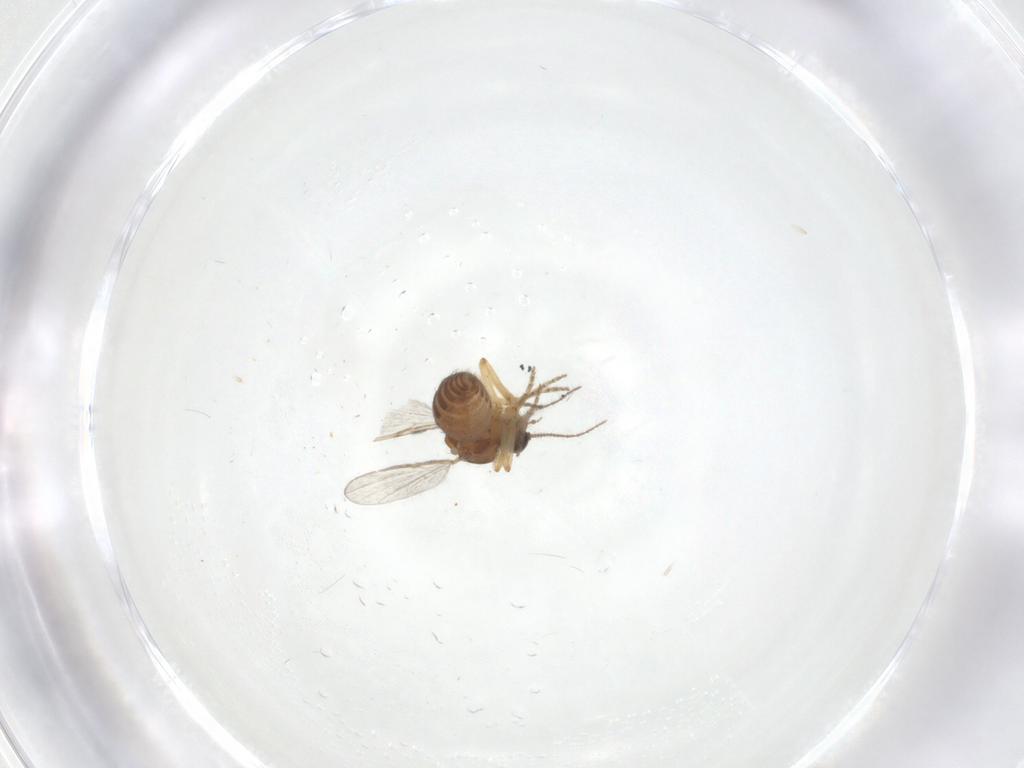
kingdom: Animalia
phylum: Arthropoda
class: Insecta
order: Diptera
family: Ceratopogonidae
